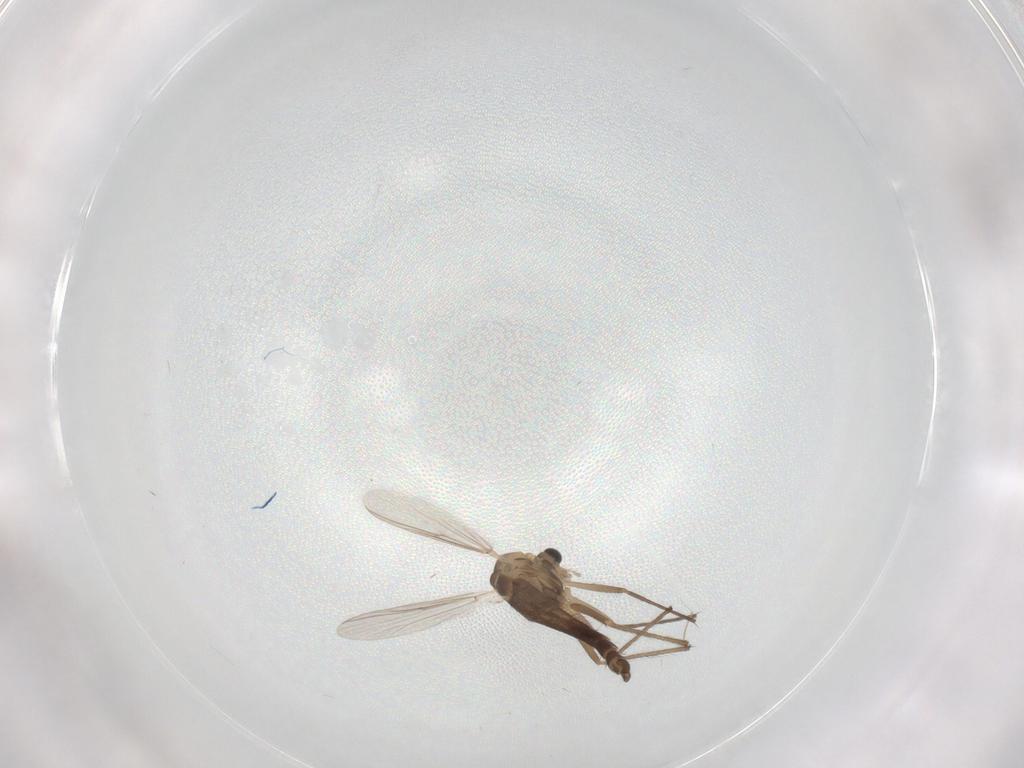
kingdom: Animalia
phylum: Arthropoda
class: Insecta
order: Diptera
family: Chironomidae
